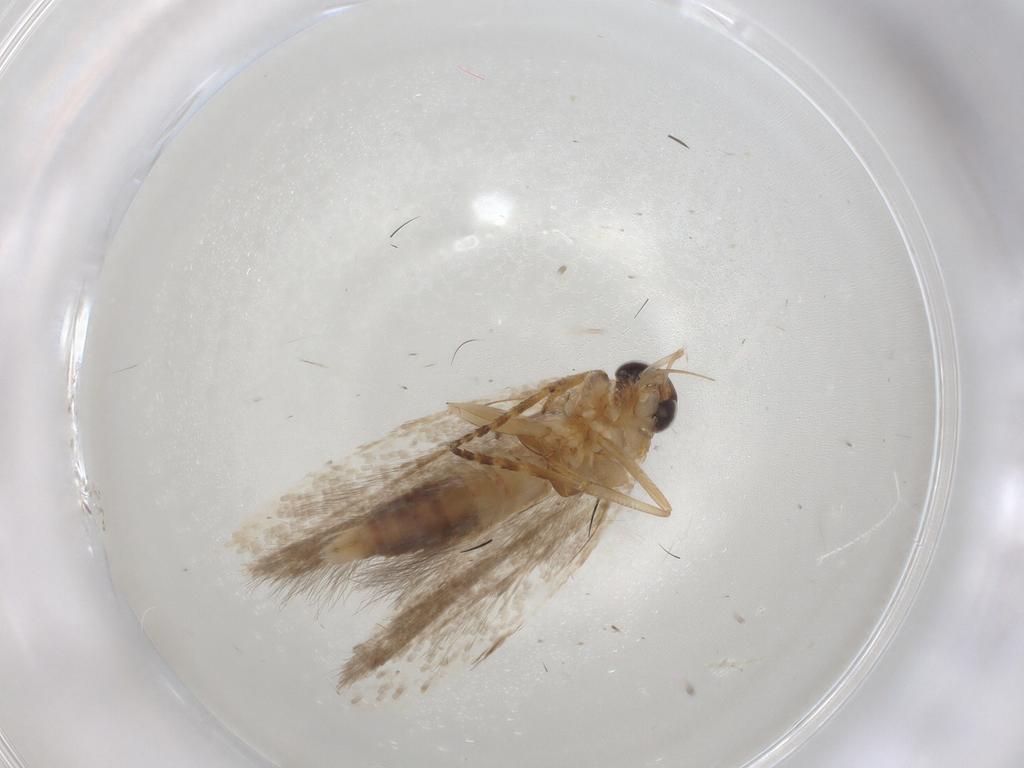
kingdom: Animalia
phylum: Arthropoda
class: Insecta
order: Lepidoptera
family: Gelechiidae
